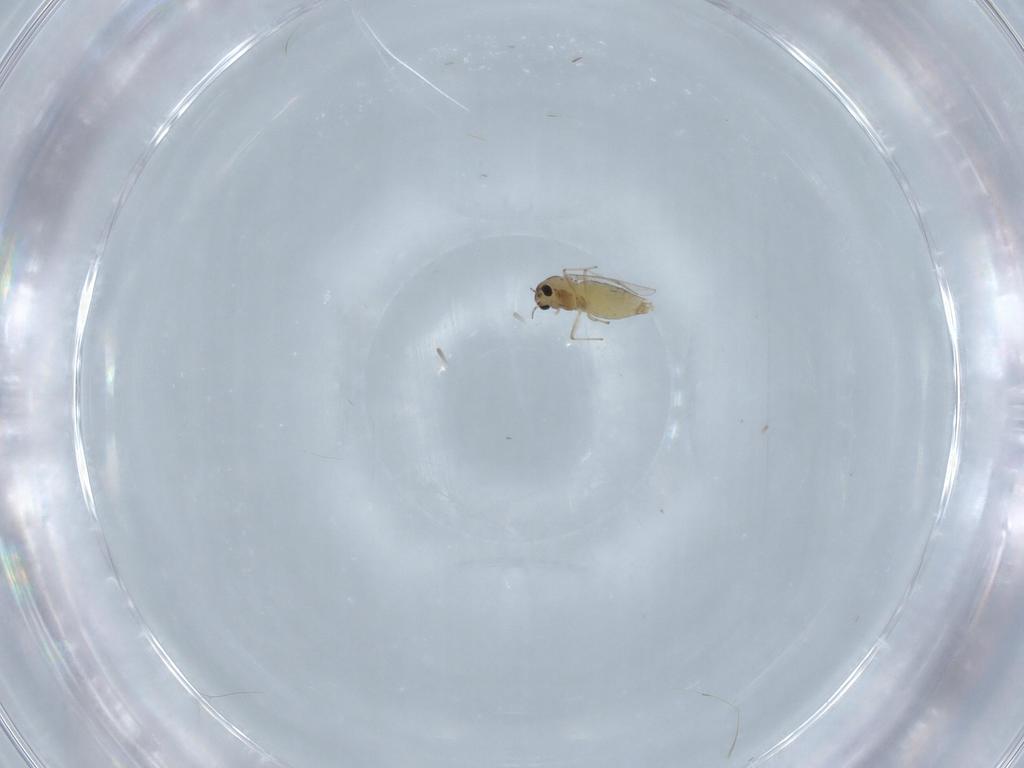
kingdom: Animalia
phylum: Arthropoda
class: Insecta
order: Diptera
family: Chironomidae
